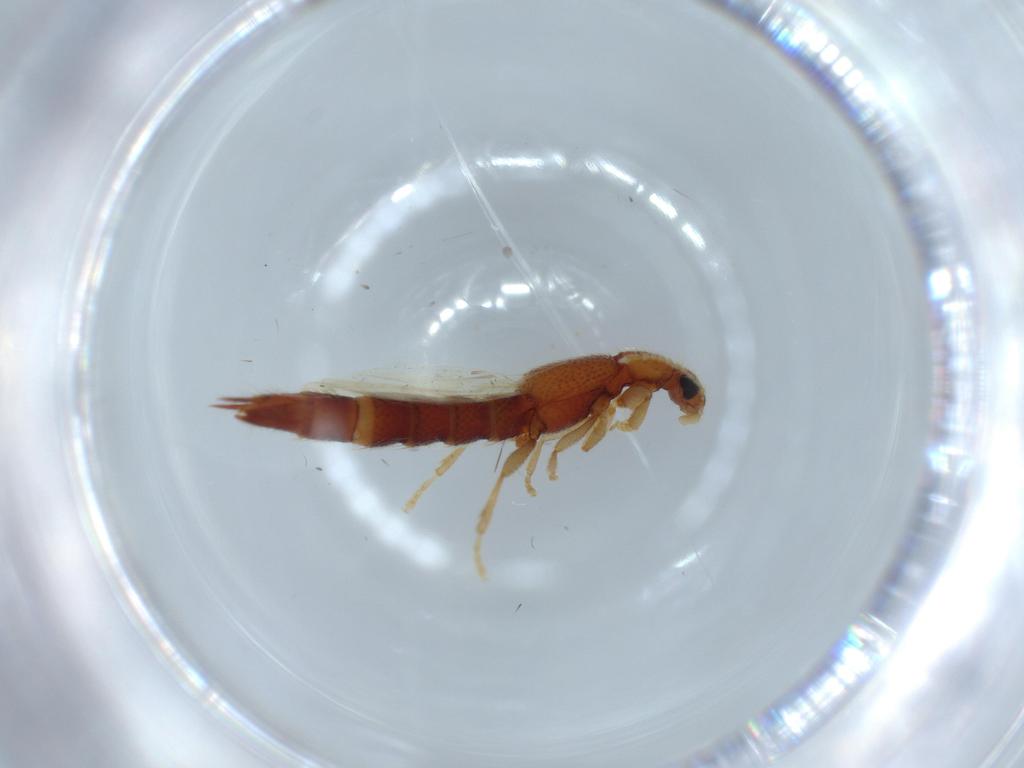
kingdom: Animalia
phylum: Arthropoda
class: Insecta
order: Coleoptera
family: Staphylinidae
